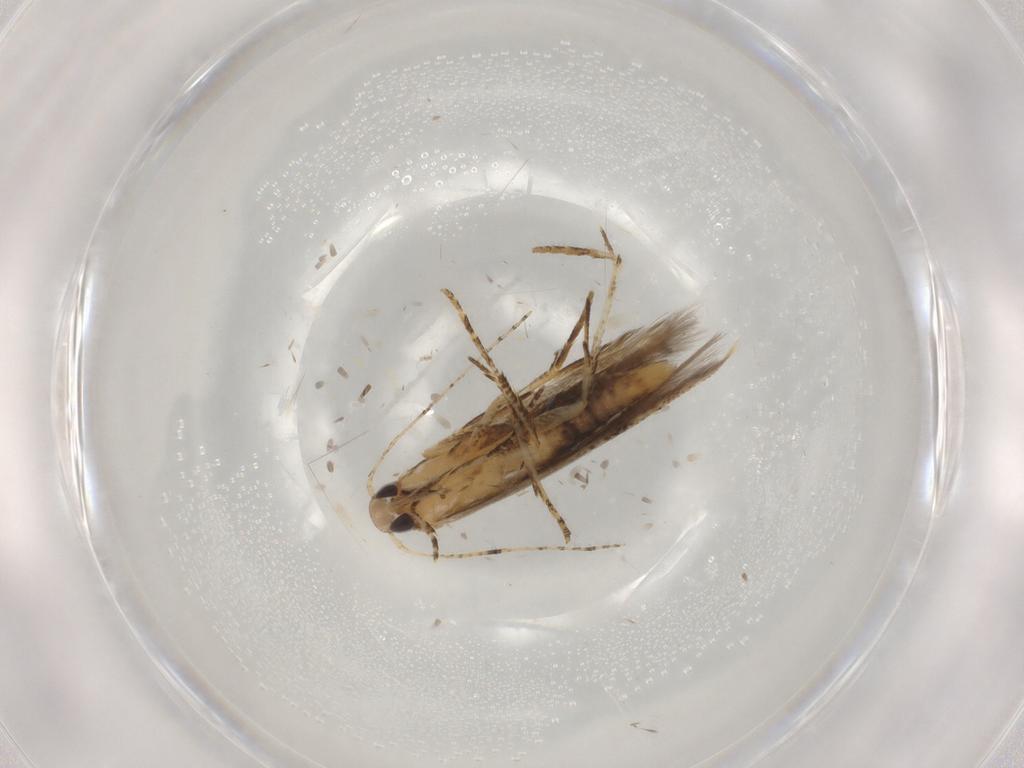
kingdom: Animalia
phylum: Arthropoda
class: Insecta
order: Lepidoptera
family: Crambidae
